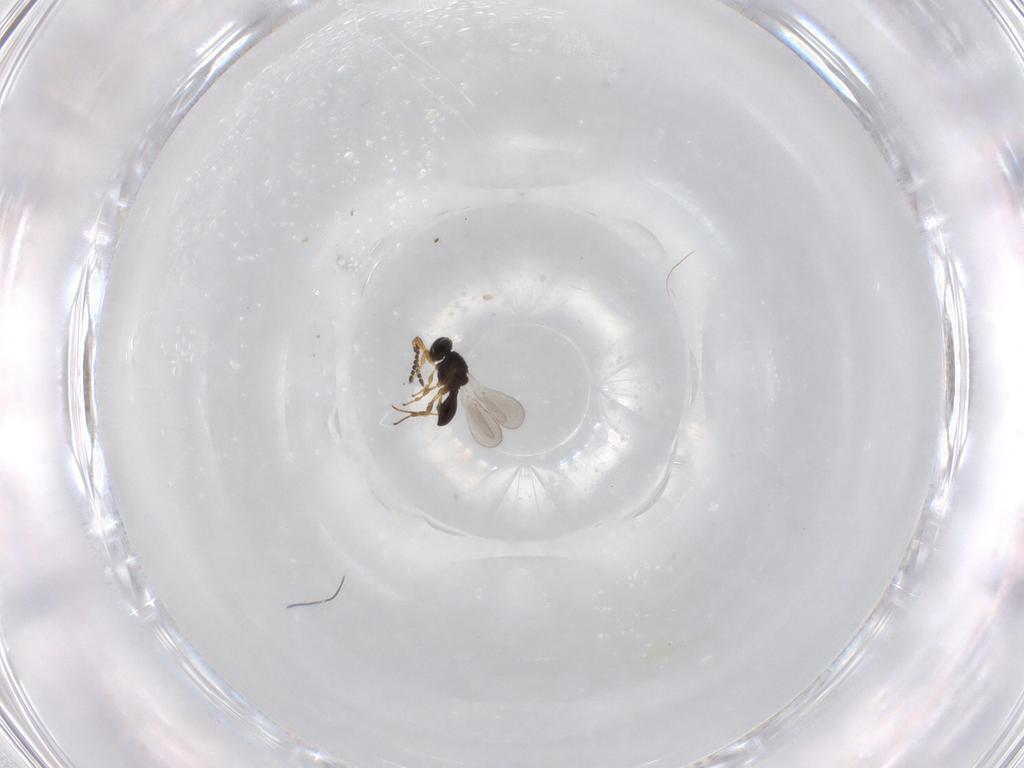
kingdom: Animalia
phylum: Arthropoda
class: Insecta
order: Hymenoptera
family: Platygastridae
